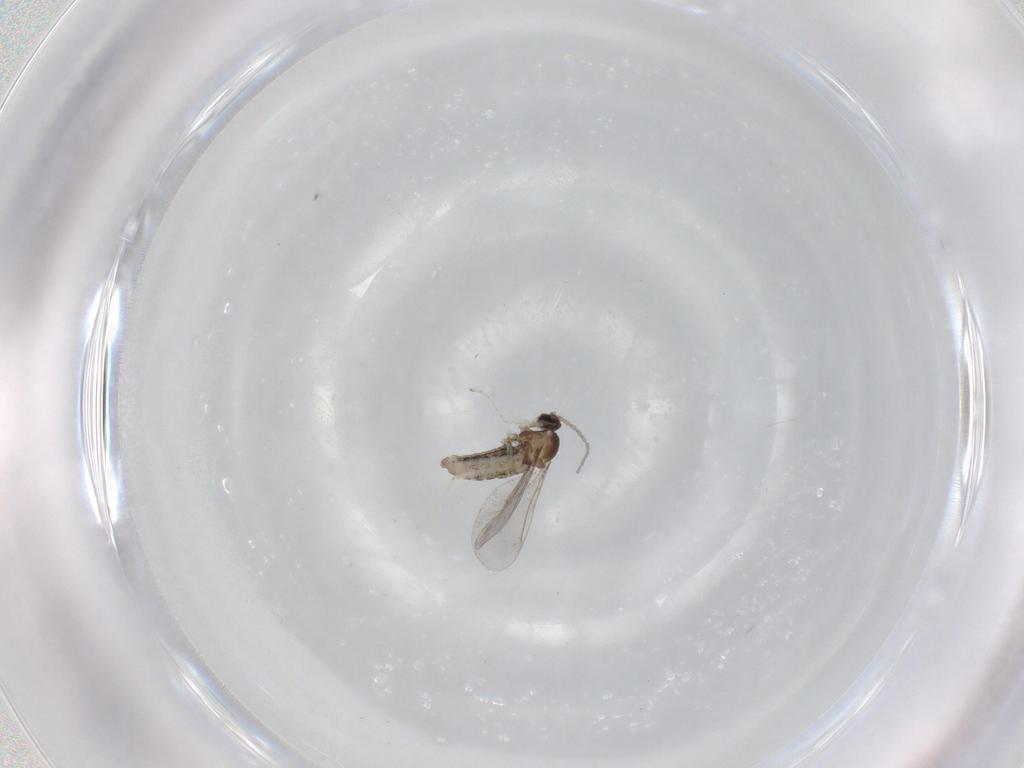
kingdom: Animalia
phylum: Arthropoda
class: Insecta
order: Diptera
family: Cecidomyiidae
